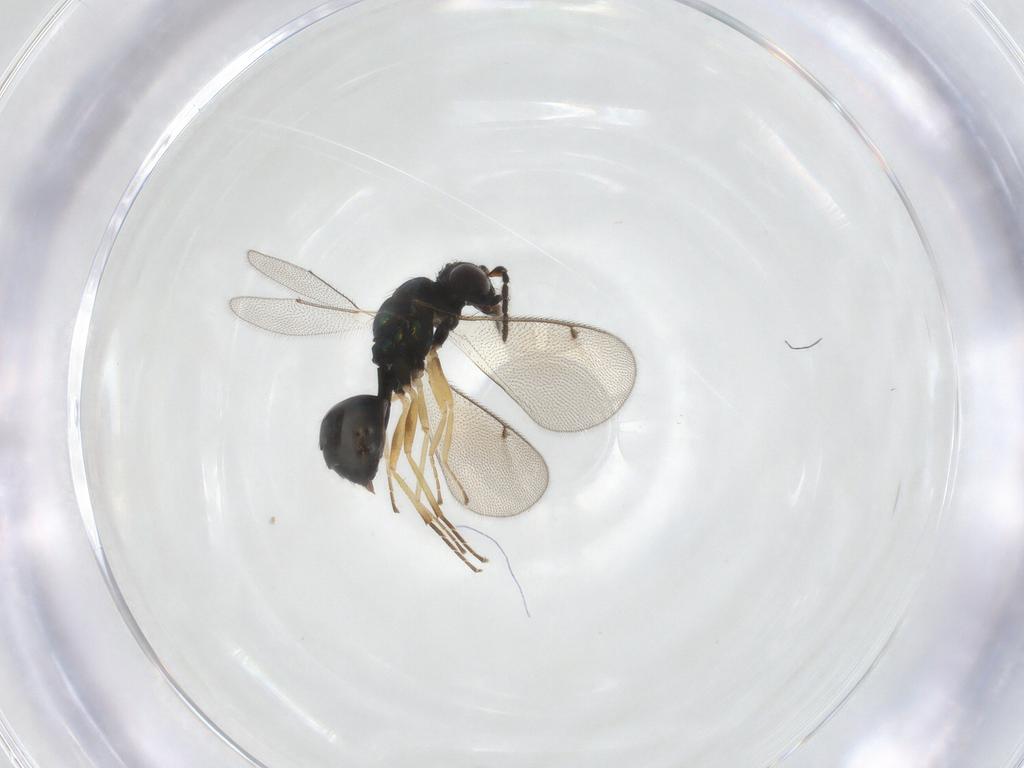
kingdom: Animalia
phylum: Arthropoda
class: Insecta
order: Hymenoptera
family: Eulophidae
